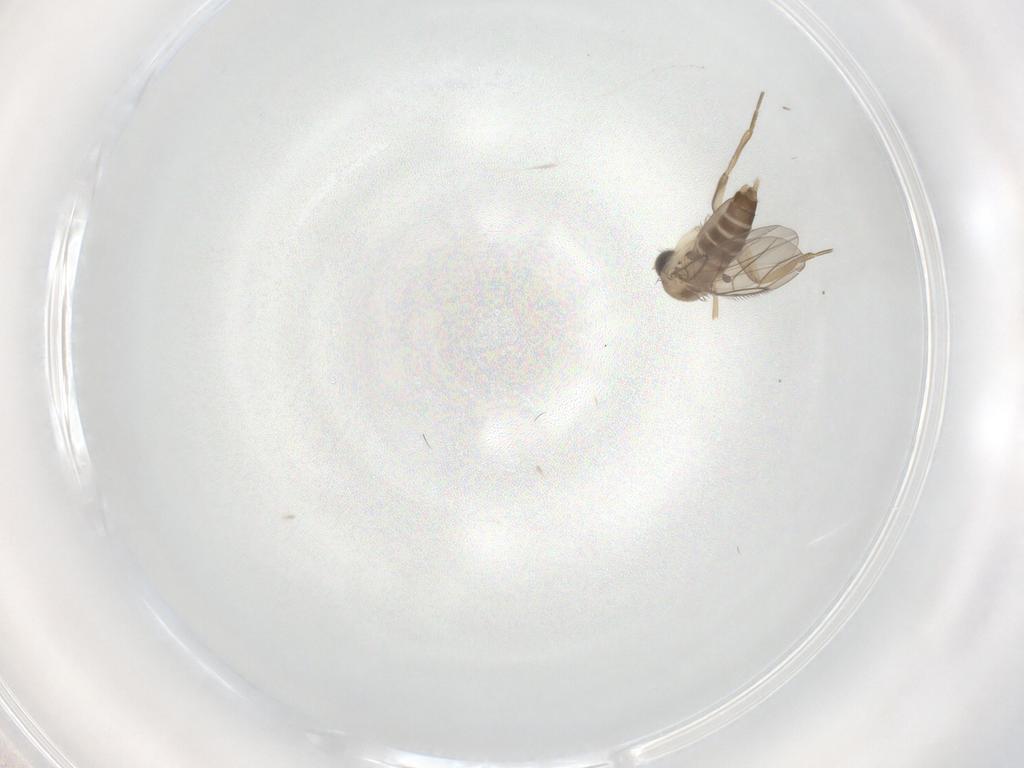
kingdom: Animalia
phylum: Arthropoda
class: Insecta
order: Diptera
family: Phoridae
